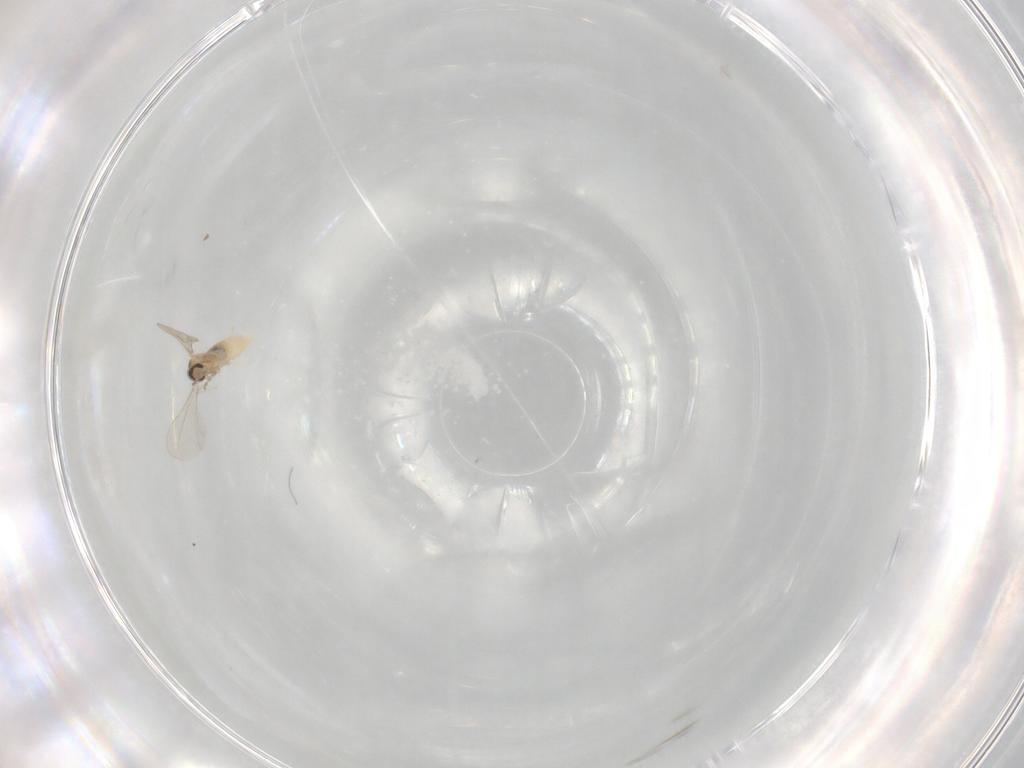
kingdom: Animalia
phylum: Arthropoda
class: Insecta
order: Diptera
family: Cecidomyiidae
